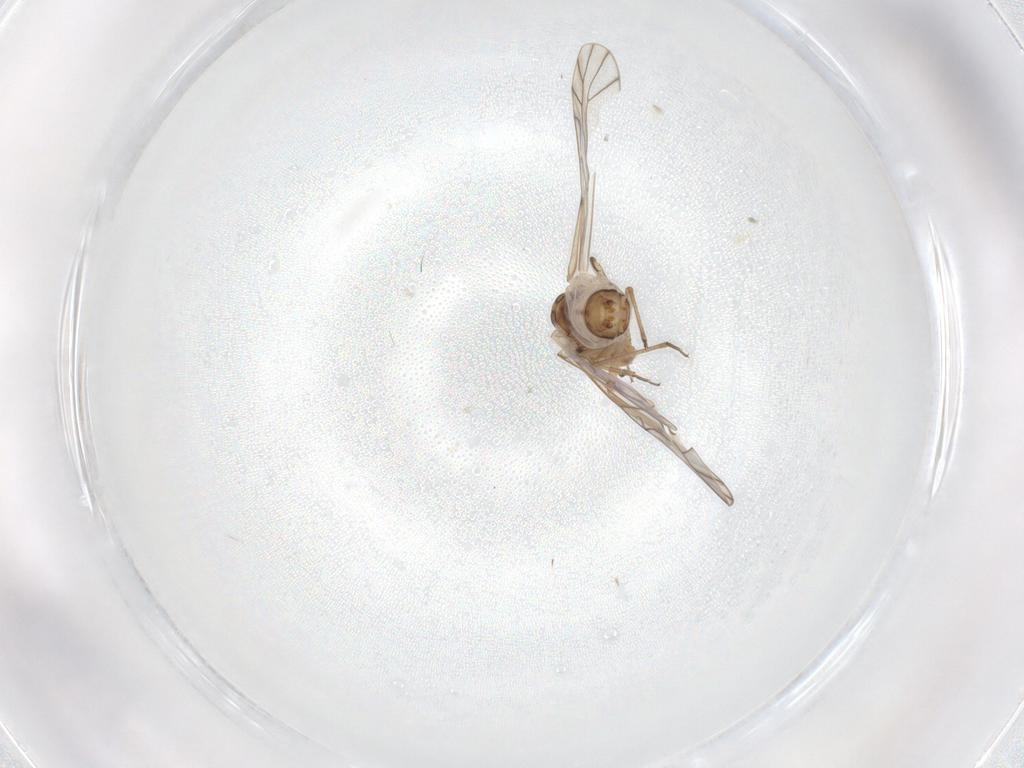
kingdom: Animalia
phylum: Arthropoda
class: Insecta
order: Psocodea
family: Lachesillidae
